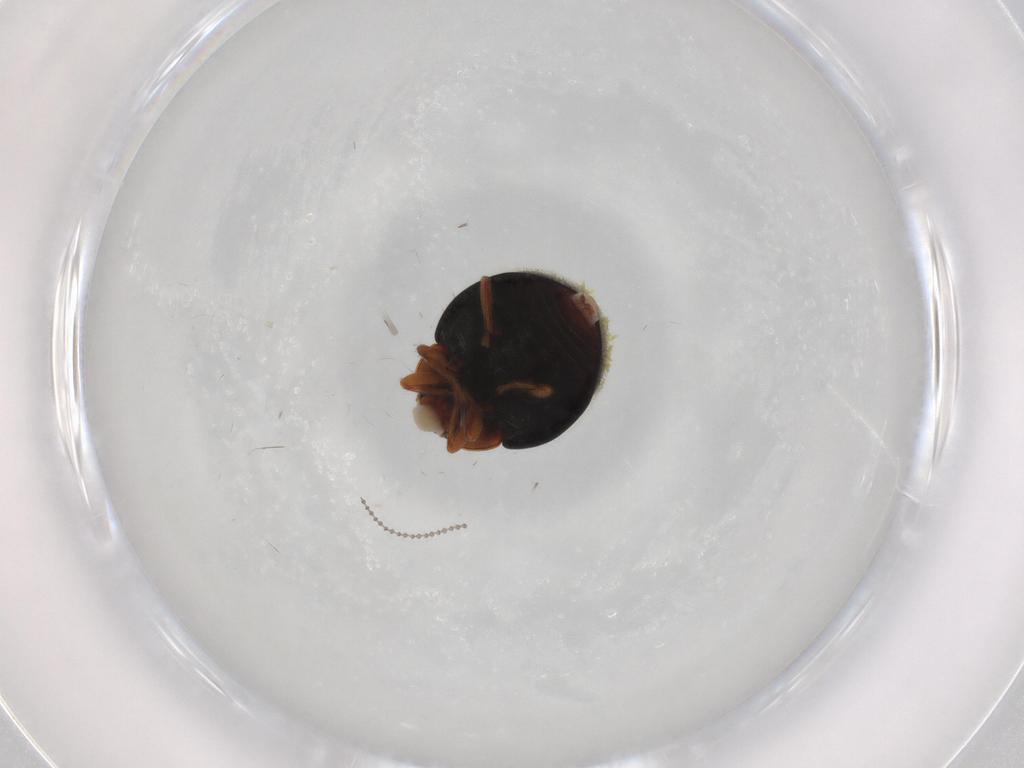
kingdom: Animalia
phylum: Arthropoda
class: Insecta
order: Coleoptera
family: Coccinellidae
